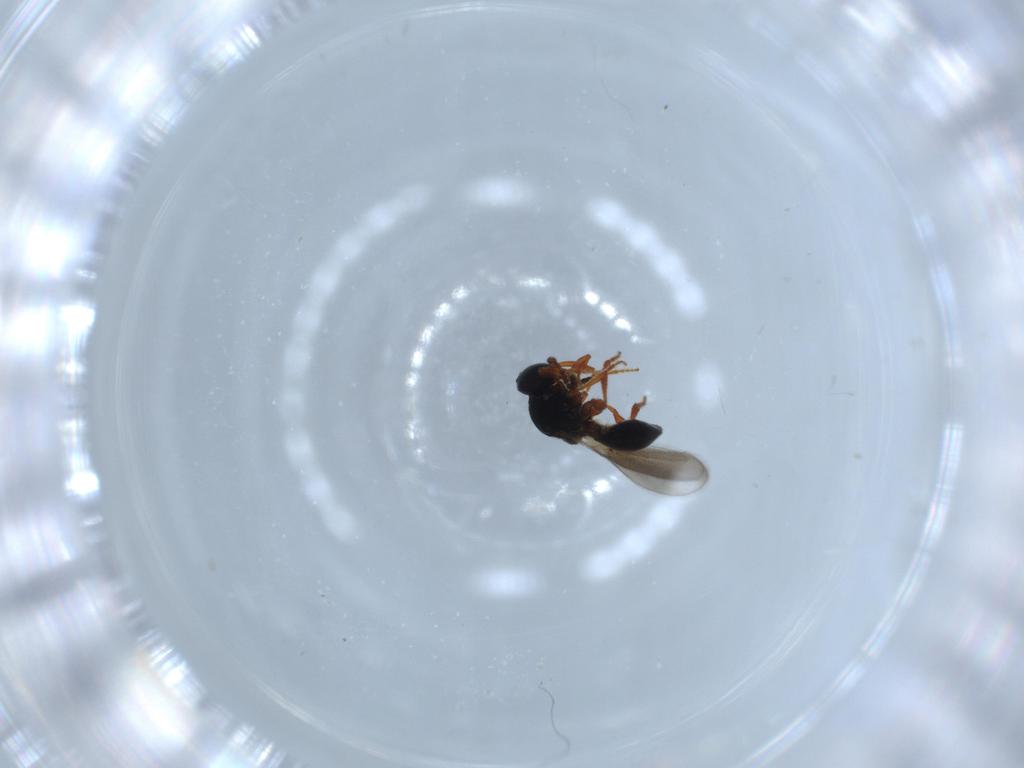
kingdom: Animalia
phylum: Arthropoda
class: Insecta
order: Hymenoptera
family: Platygastridae
